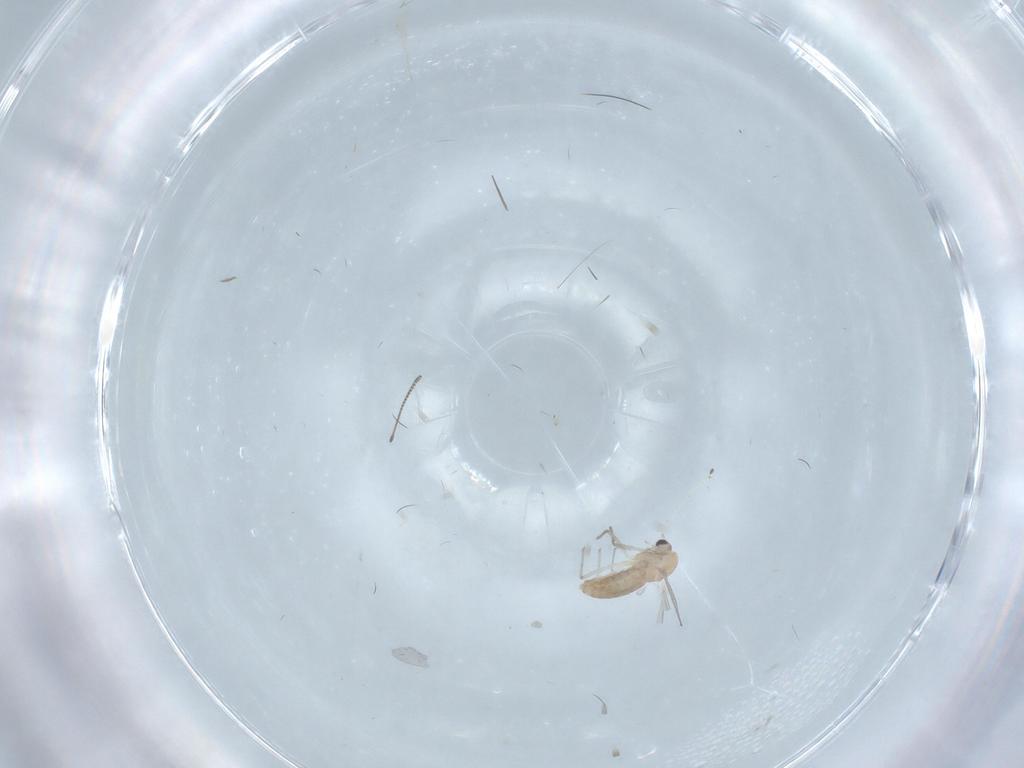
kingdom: Animalia
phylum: Arthropoda
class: Insecta
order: Diptera
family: Chironomidae
